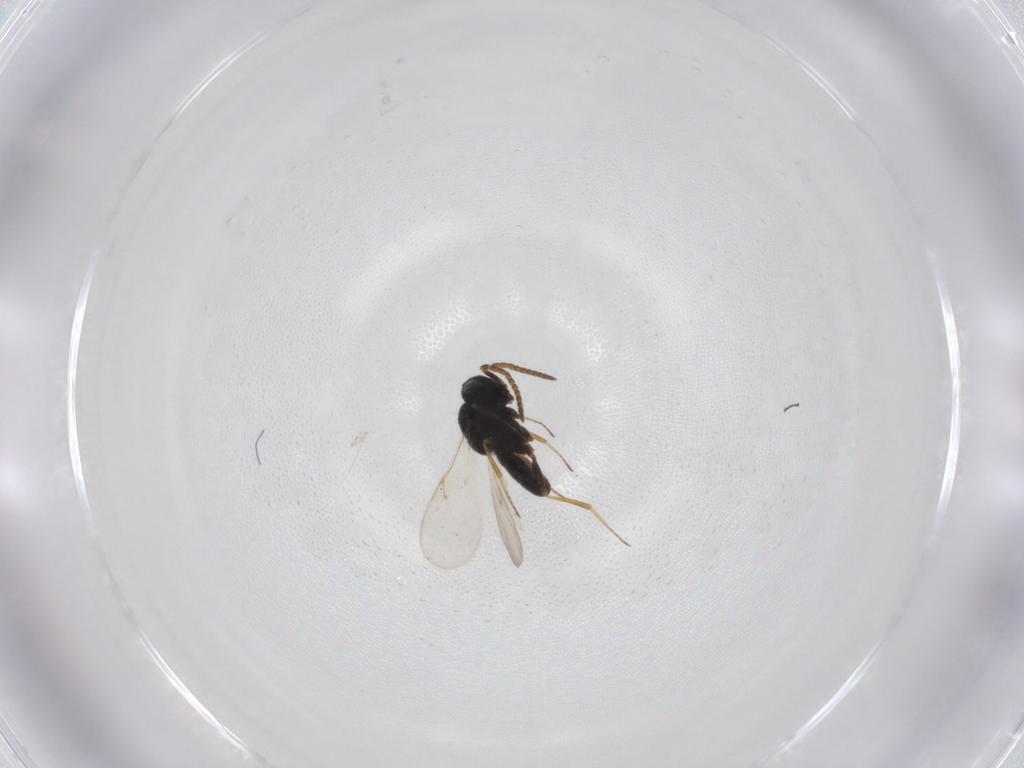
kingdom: Animalia
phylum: Arthropoda
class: Insecta
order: Hymenoptera
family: Scelionidae
